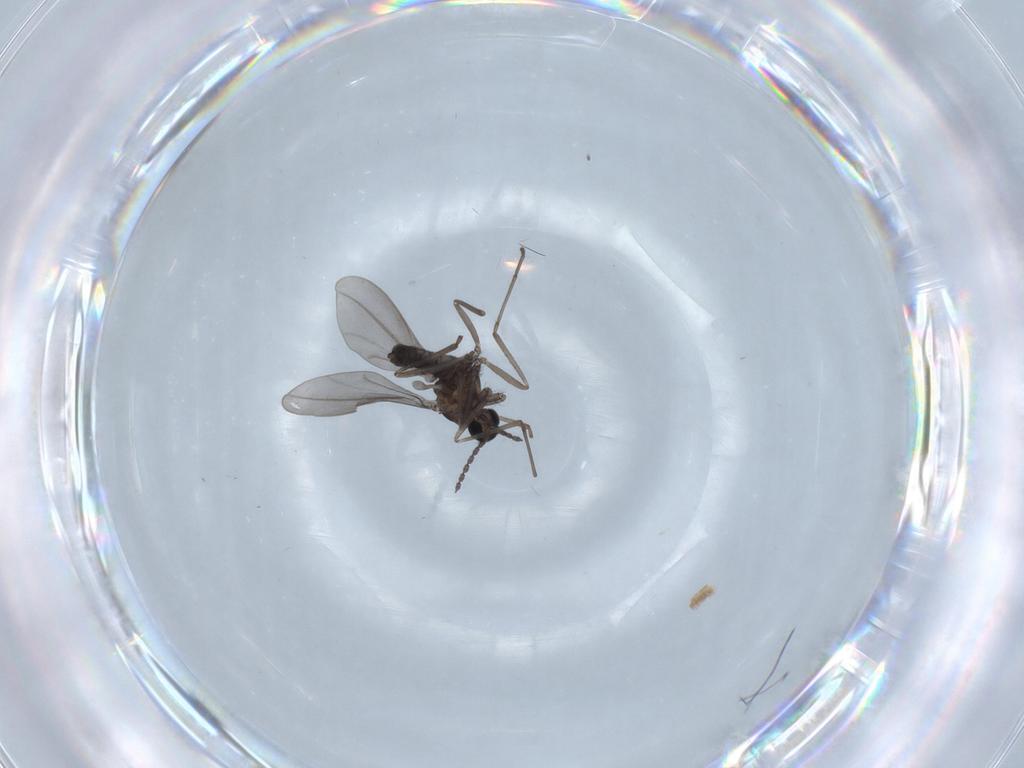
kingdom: Animalia
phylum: Arthropoda
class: Insecta
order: Diptera
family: Sciaridae
